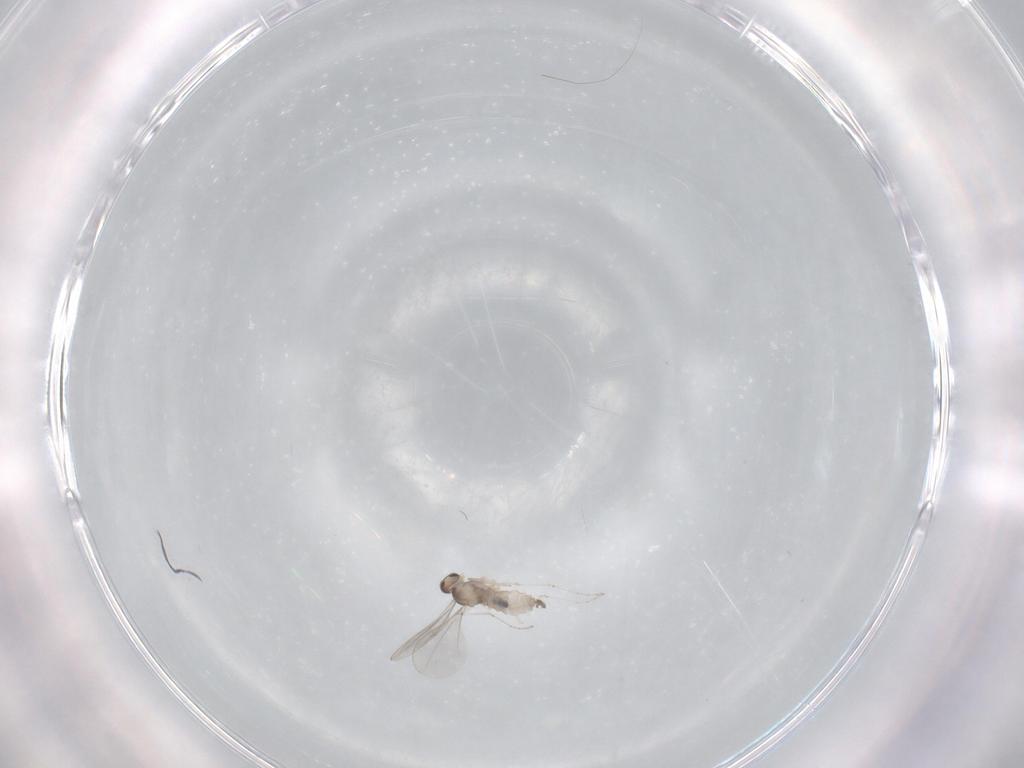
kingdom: Animalia
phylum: Arthropoda
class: Insecta
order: Diptera
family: Cecidomyiidae
